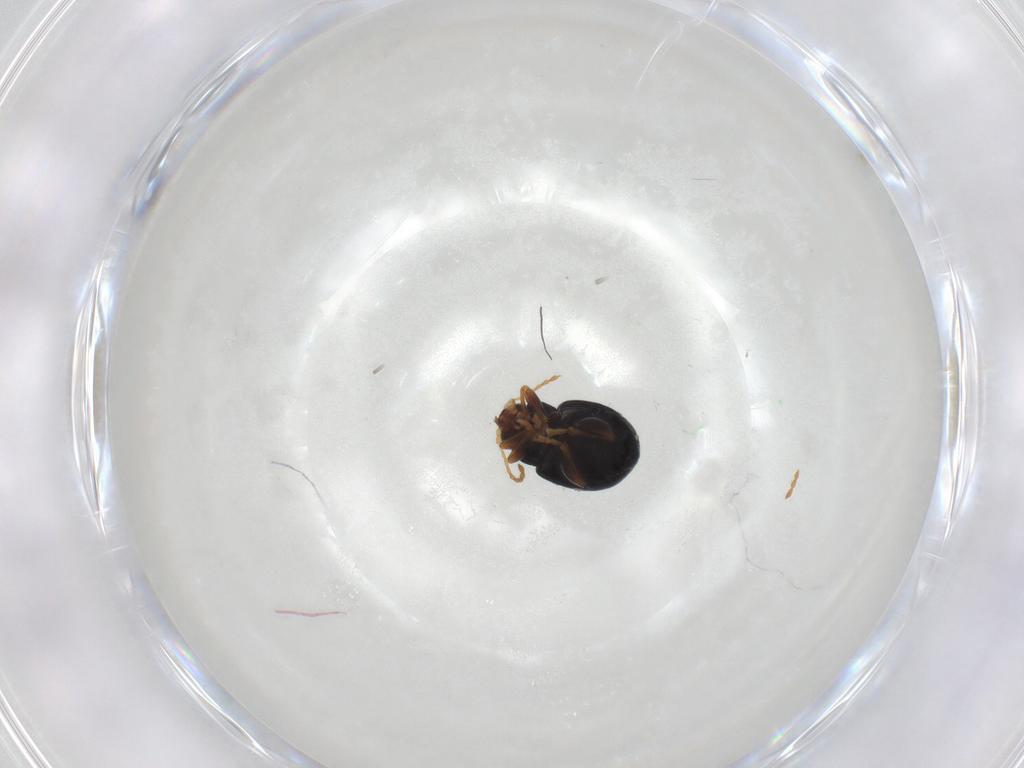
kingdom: Animalia
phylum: Arthropoda
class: Insecta
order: Coleoptera
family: Chrysomelidae
